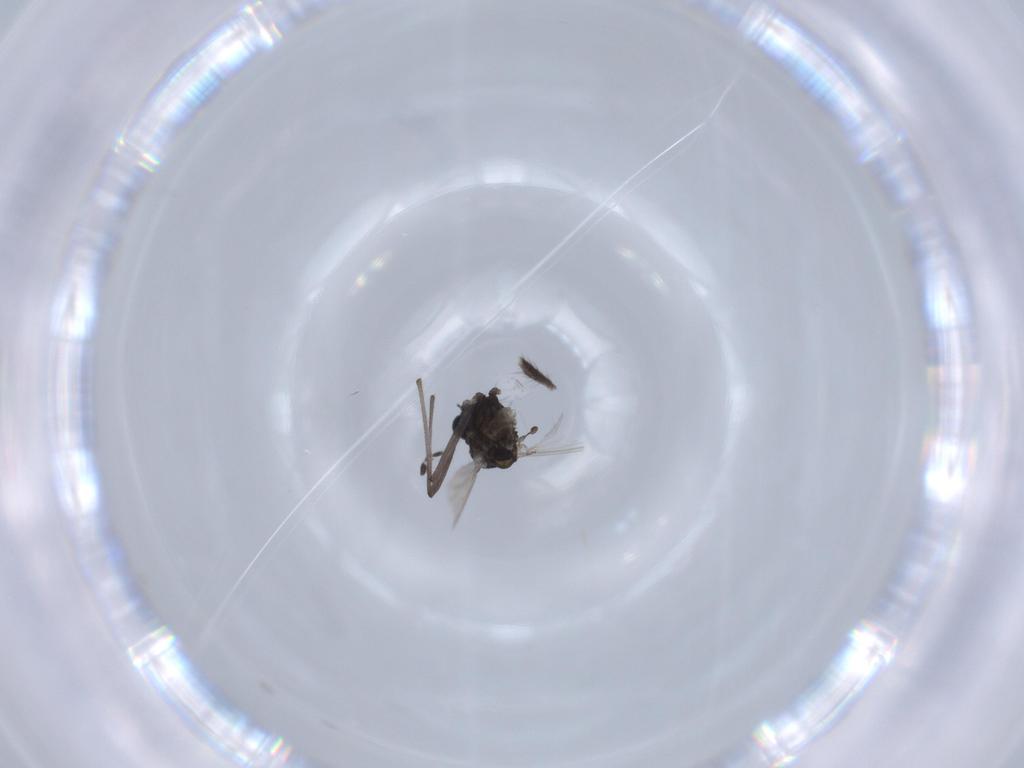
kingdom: Animalia
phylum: Arthropoda
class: Insecta
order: Diptera
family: Chironomidae
